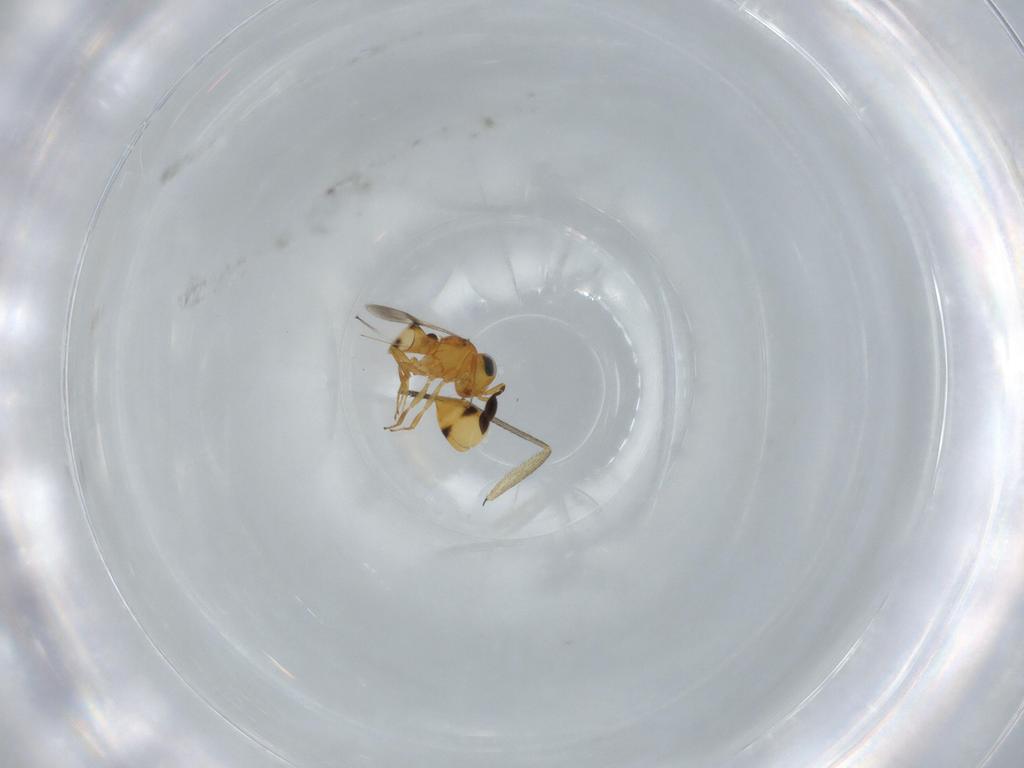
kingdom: Animalia
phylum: Arthropoda
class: Insecta
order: Hymenoptera
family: Scelionidae
